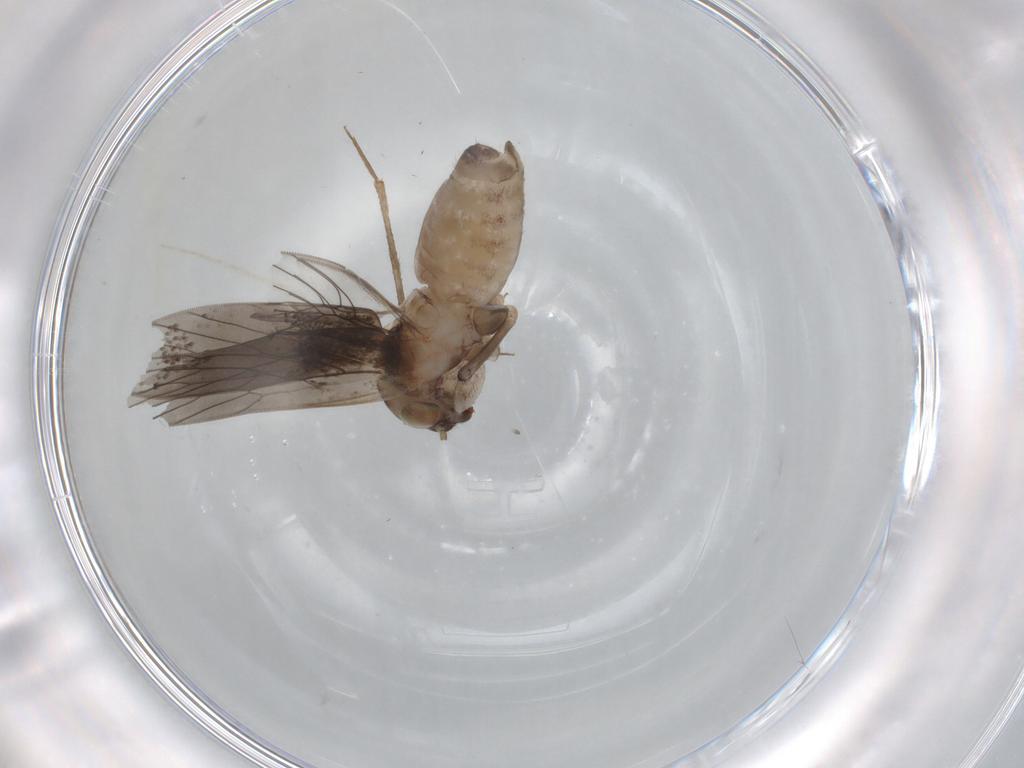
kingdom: Animalia
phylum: Arthropoda
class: Insecta
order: Psocodea
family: Lepidopsocidae
